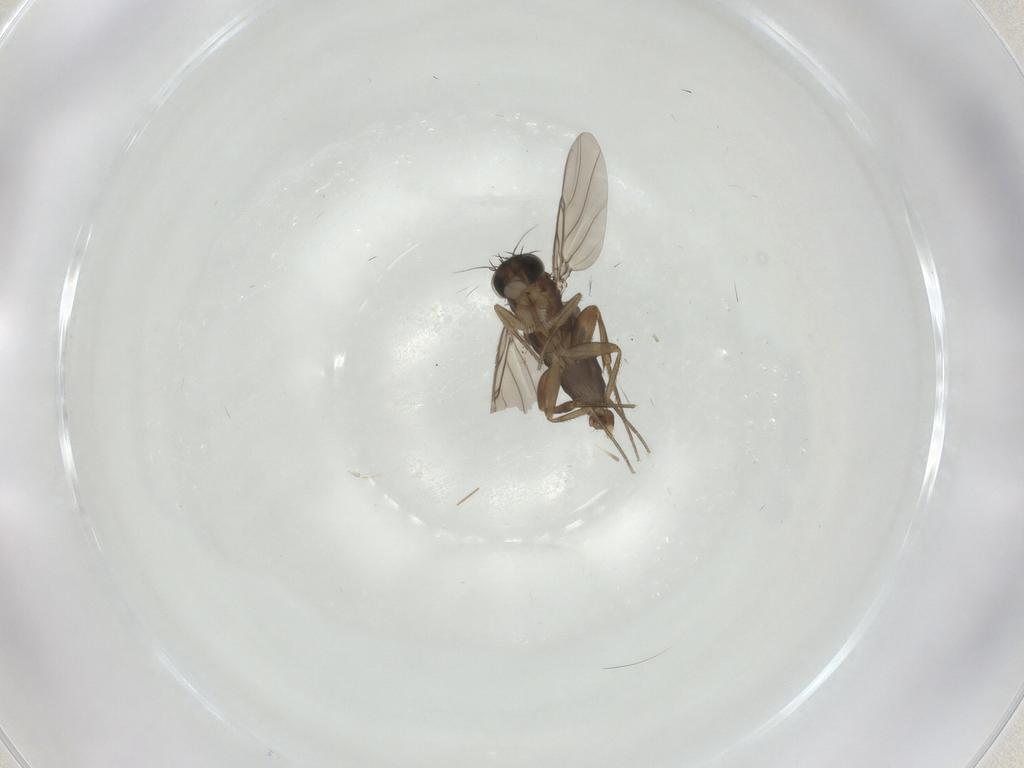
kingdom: Animalia
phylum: Arthropoda
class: Insecta
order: Diptera
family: Phoridae
